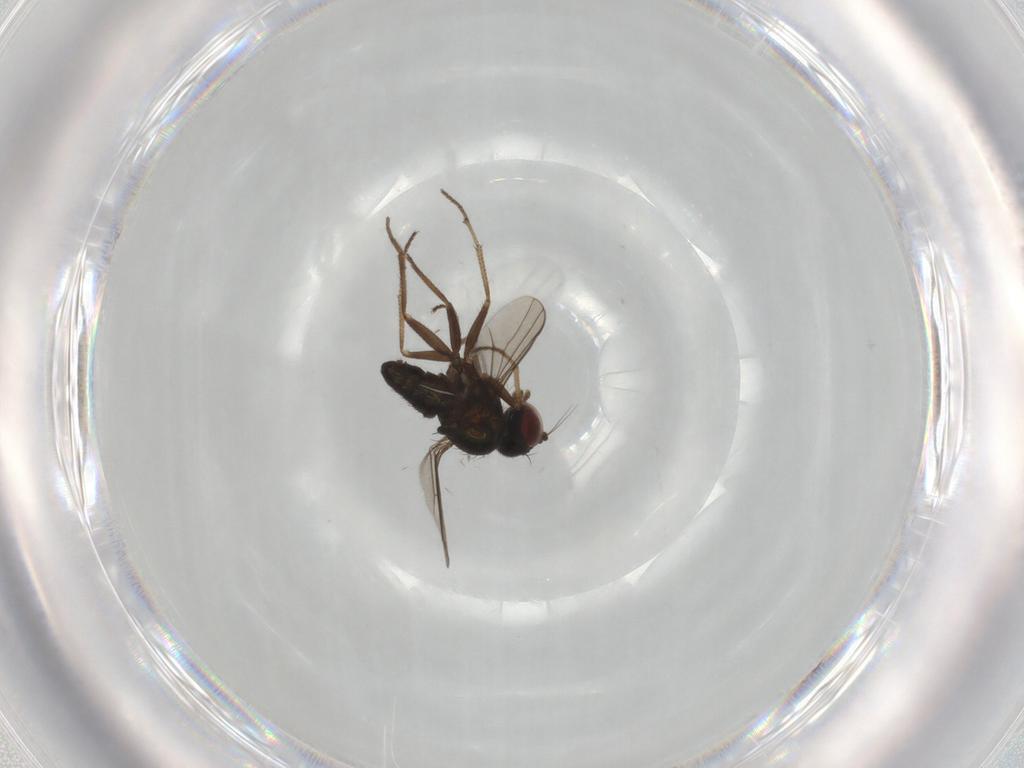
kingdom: Animalia
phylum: Arthropoda
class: Insecta
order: Diptera
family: Dolichopodidae
